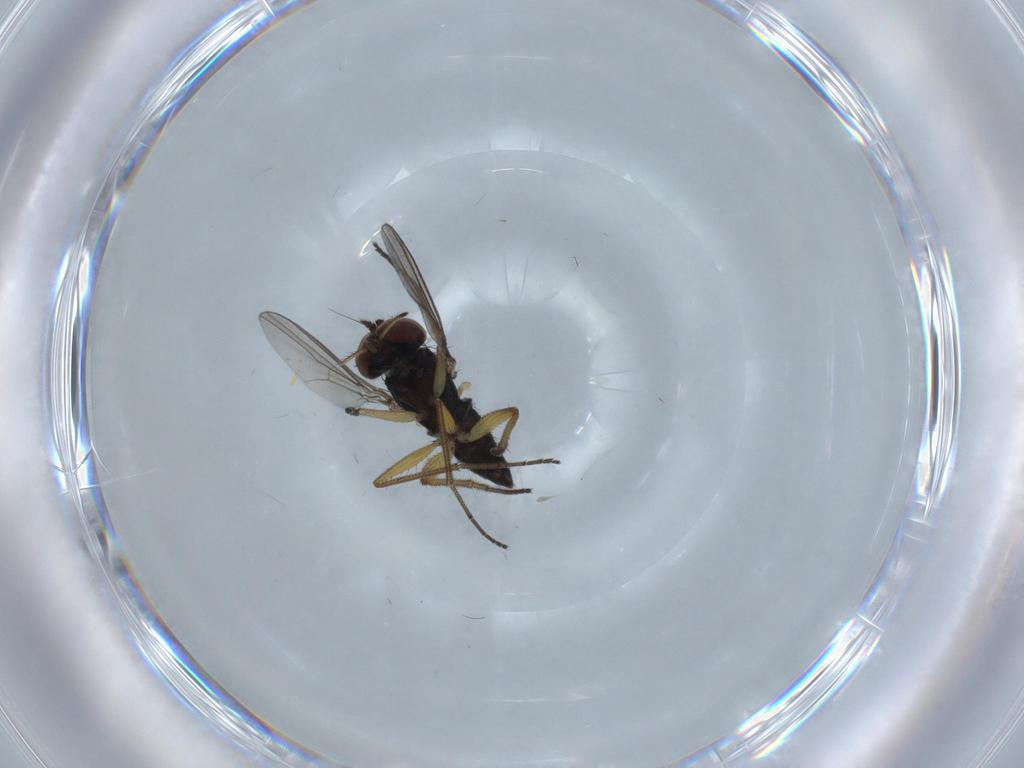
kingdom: Animalia
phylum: Arthropoda
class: Insecta
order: Diptera
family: Dolichopodidae
